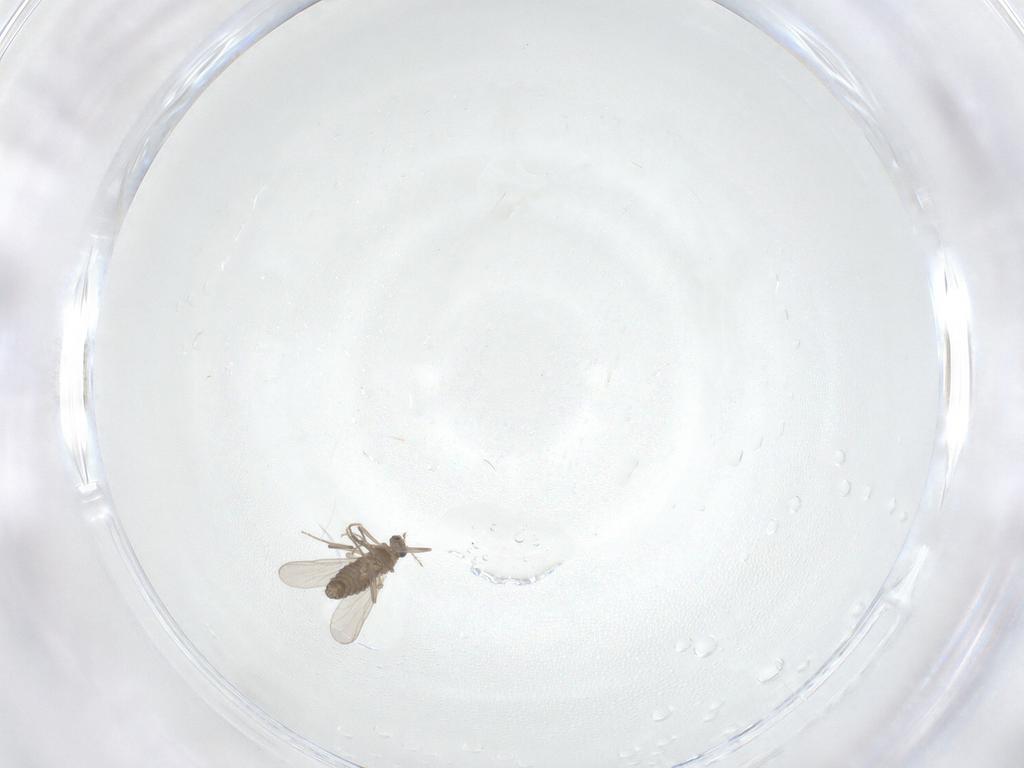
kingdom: Animalia
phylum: Arthropoda
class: Insecta
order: Diptera
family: Chironomidae
